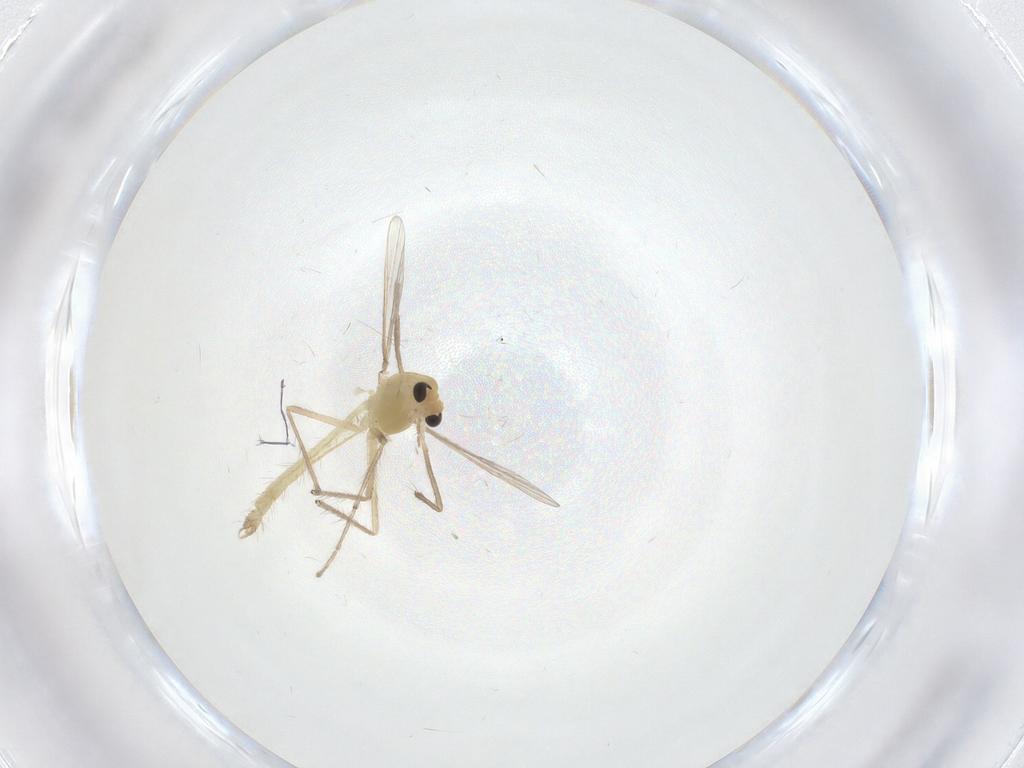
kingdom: Animalia
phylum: Arthropoda
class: Insecta
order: Diptera
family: Chironomidae
